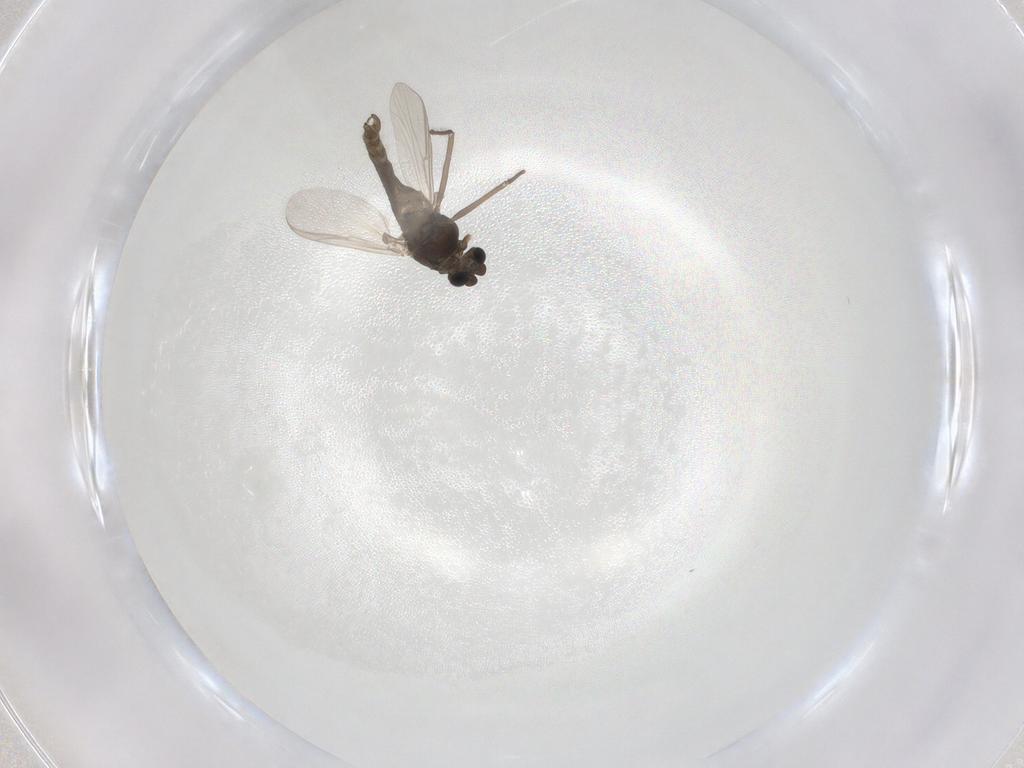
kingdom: Animalia
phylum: Arthropoda
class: Insecta
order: Diptera
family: Chironomidae
